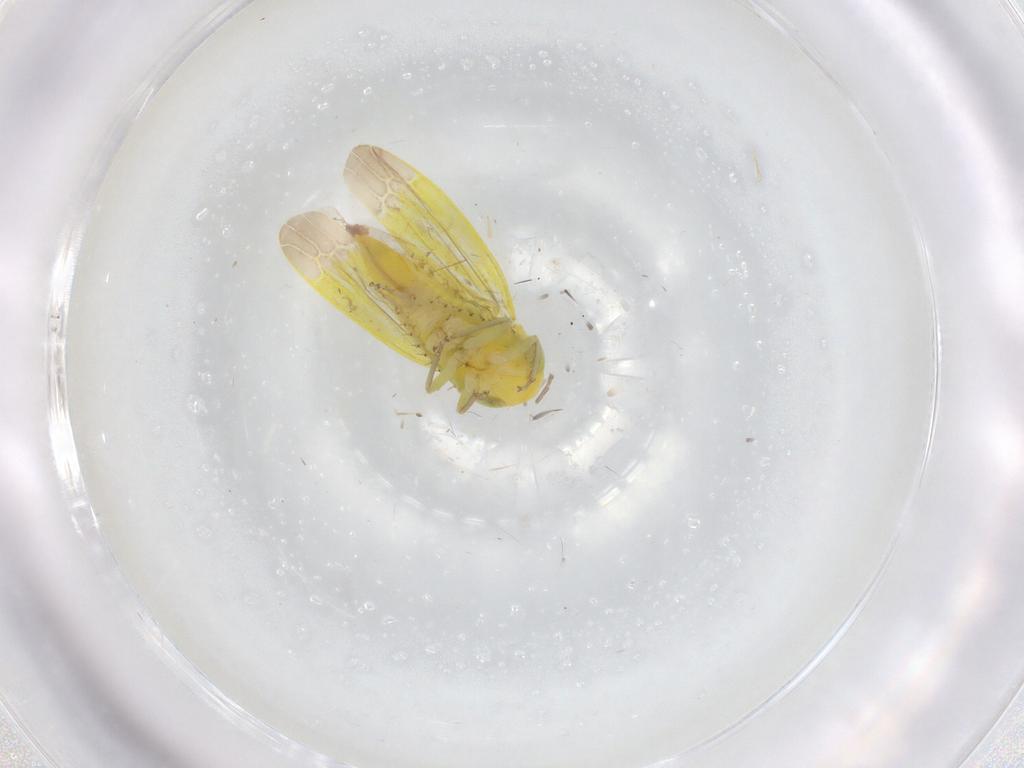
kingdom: Animalia
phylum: Arthropoda
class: Insecta
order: Hemiptera
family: Cicadellidae
